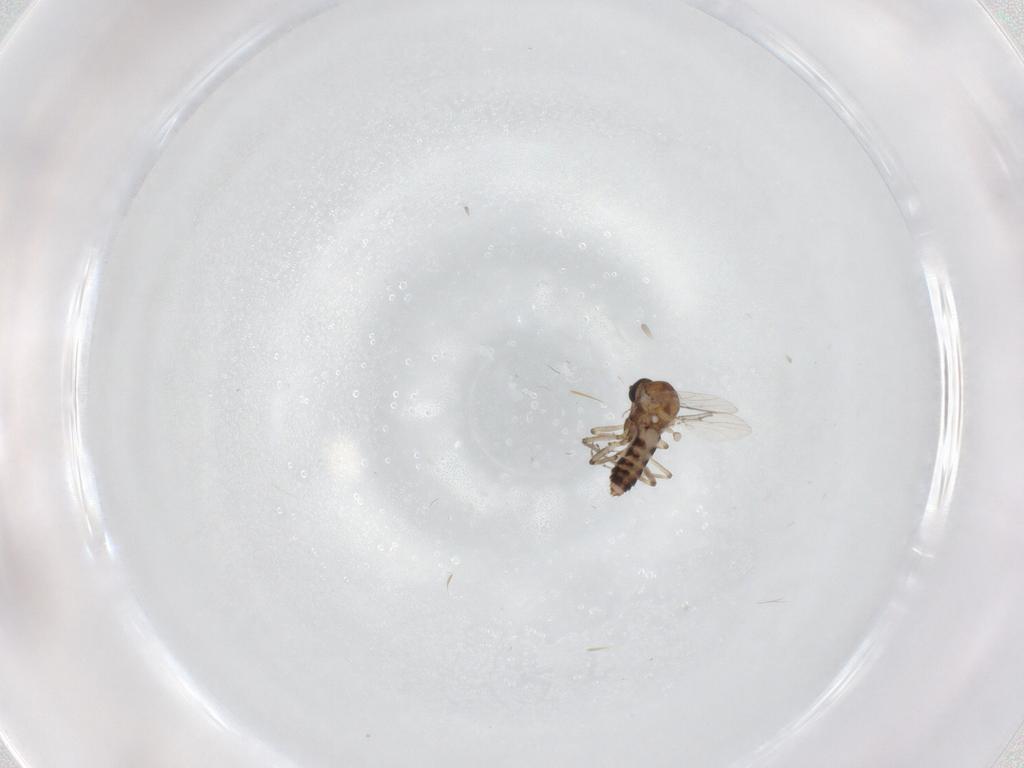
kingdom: Animalia
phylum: Arthropoda
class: Insecta
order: Diptera
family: Ceratopogonidae
